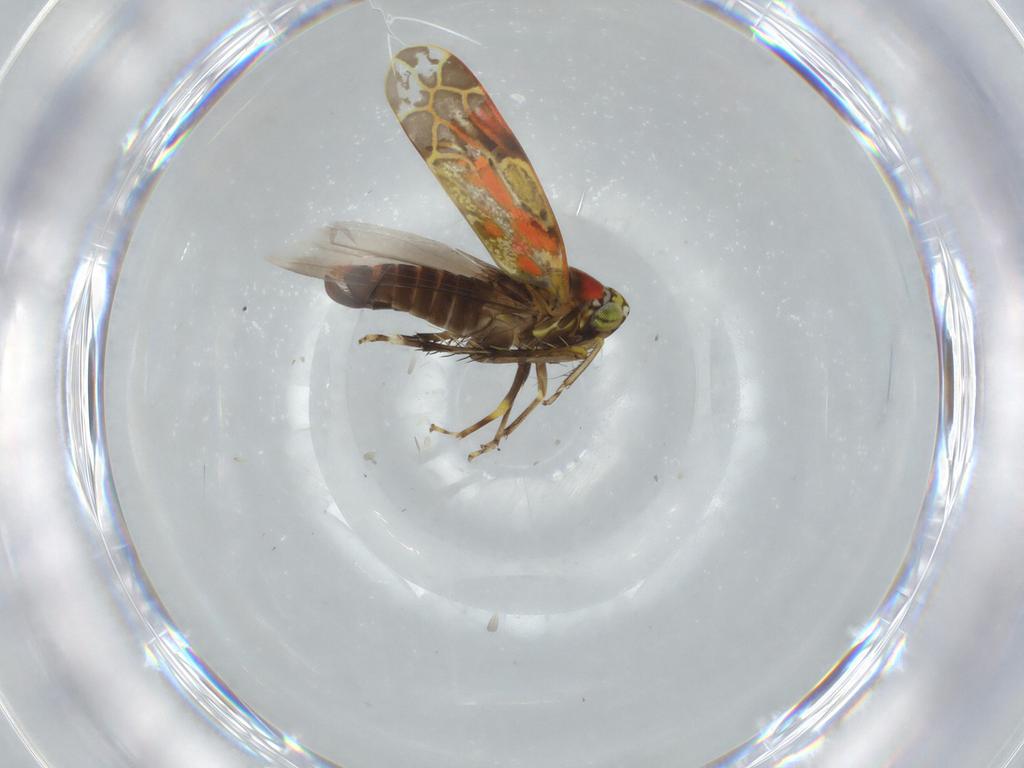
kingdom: Animalia
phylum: Arthropoda
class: Insecta
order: Hemiptera
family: Cicadellidae
